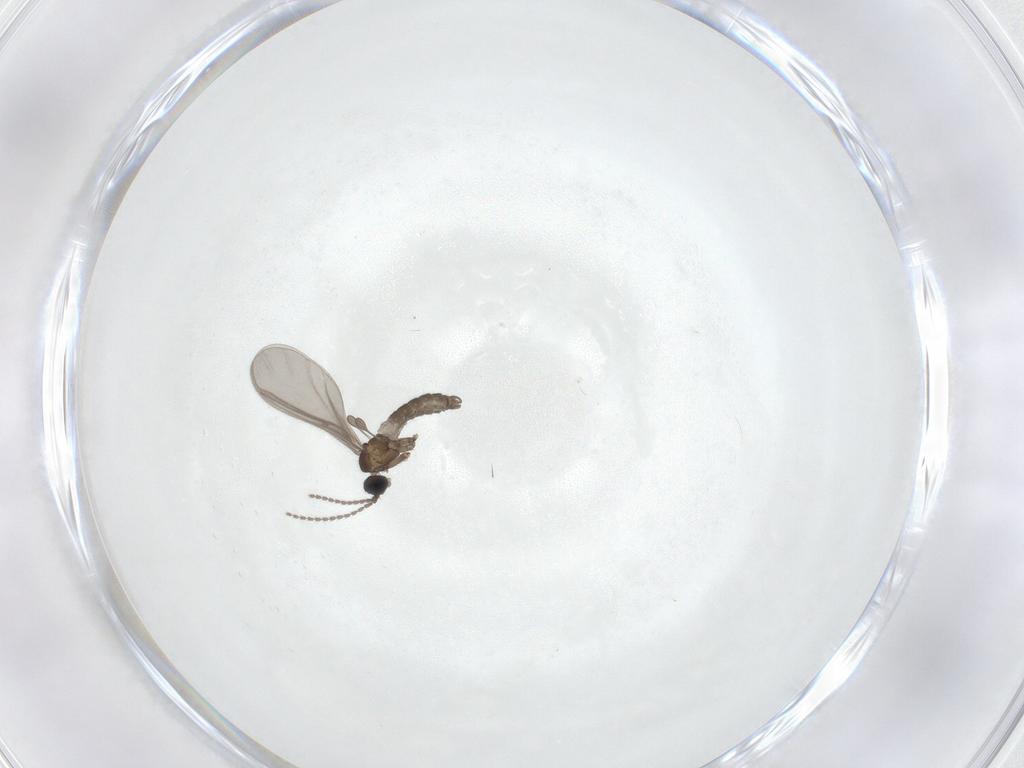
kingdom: Animalia
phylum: Arthropoda
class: Insecta
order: Diptera
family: Sciaridae
